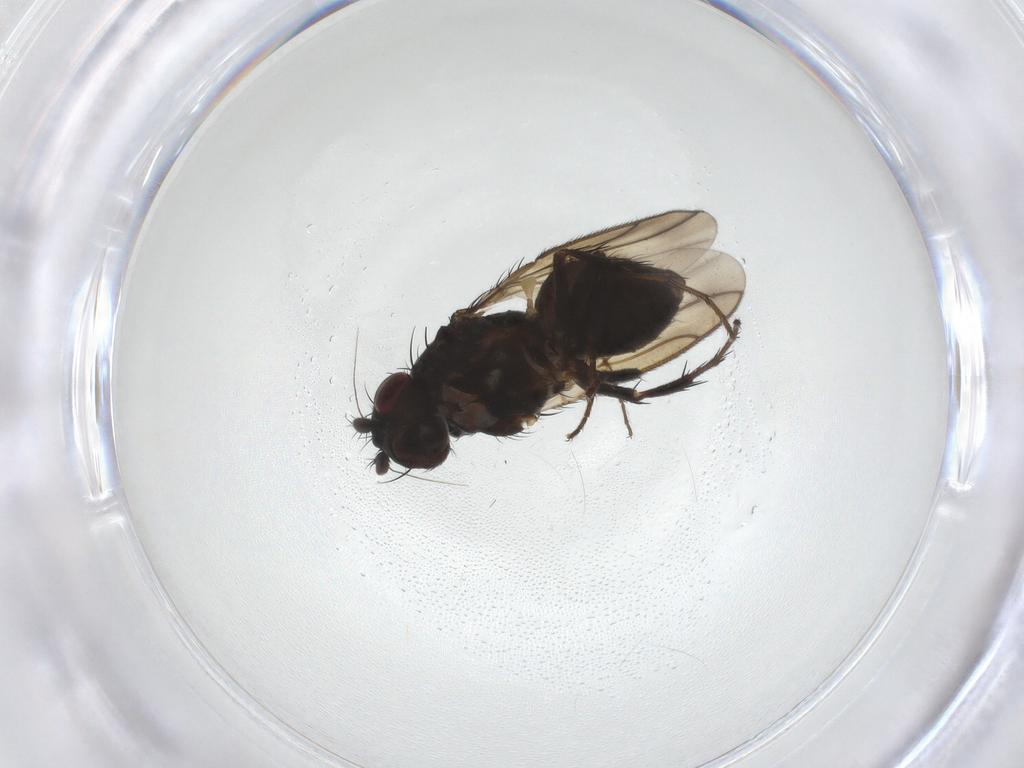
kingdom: Animalia
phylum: Arthropoda
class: Insecta
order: Diptera
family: Sphaeroceridae
